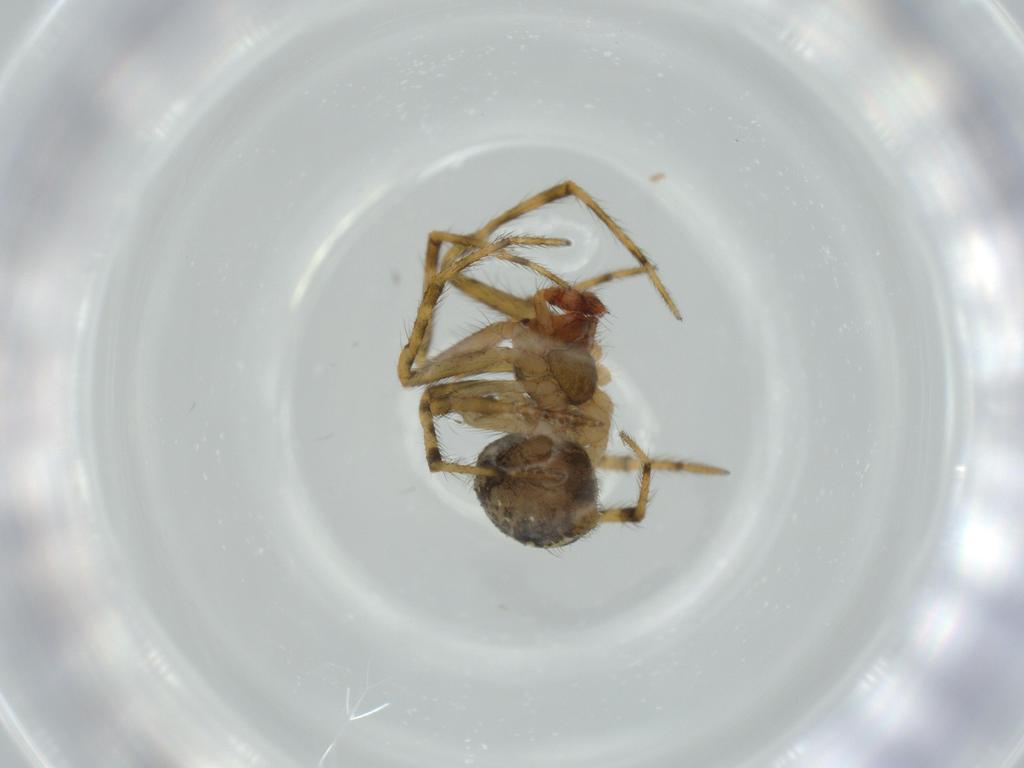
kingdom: Animalia
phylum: Arthropoda
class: Arachnida
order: Araneae
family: Theridiidae
